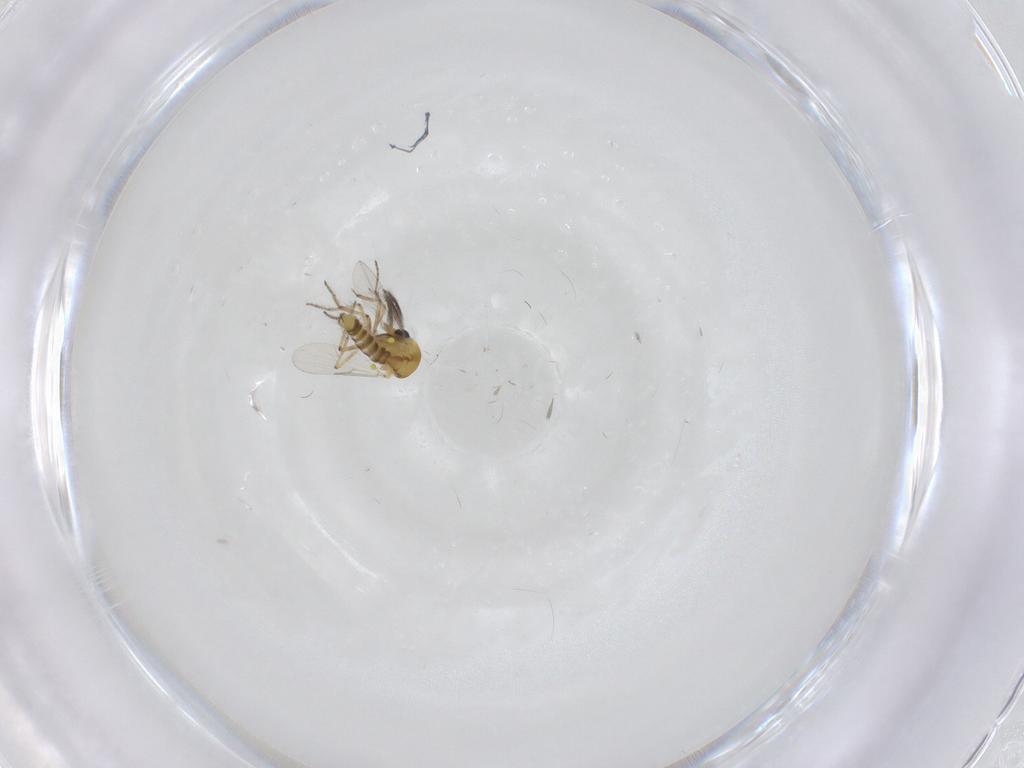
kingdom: Animalia
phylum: Arthropoda
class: Insecta
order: Diptera
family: Ceratopogonidae
